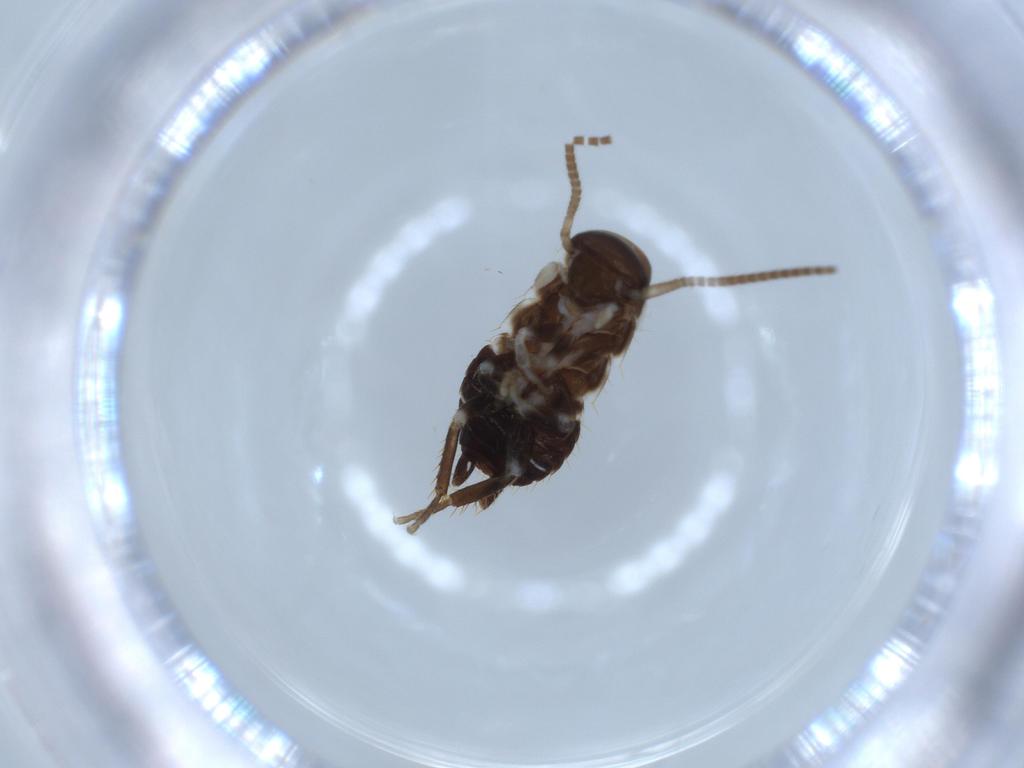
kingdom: Animalia
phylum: Arthropoda
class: Insecta
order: Blattodea
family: Ectobiidae
